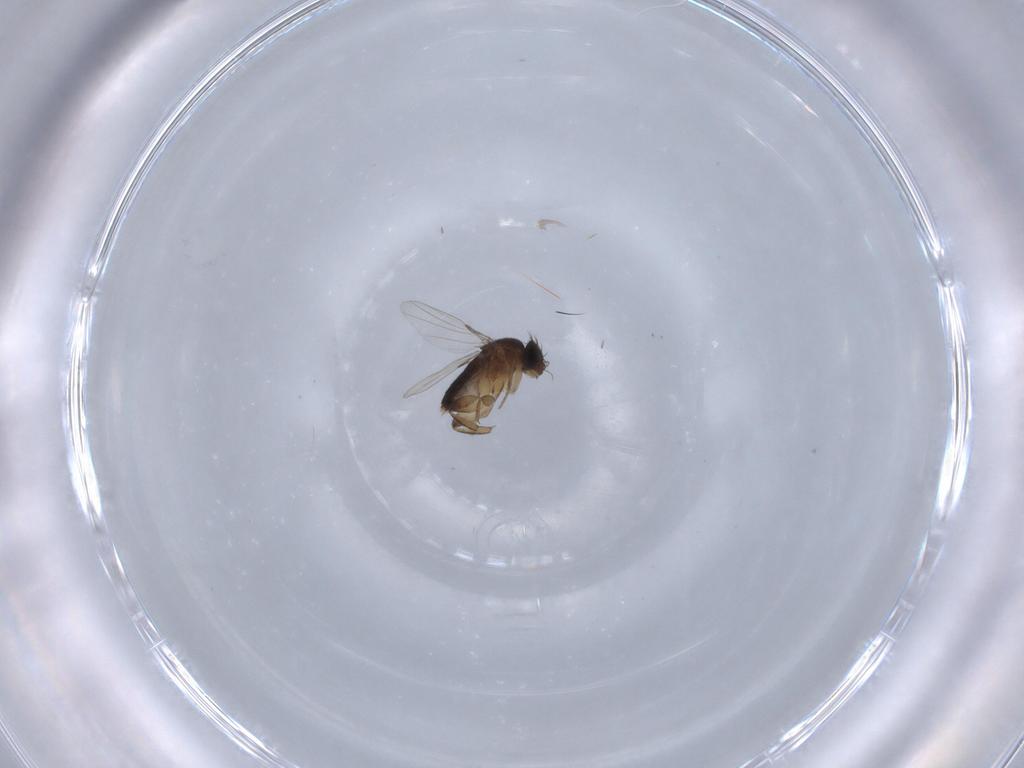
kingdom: Animalia
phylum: Arthropoda
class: Insecta
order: Diptera
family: Phoridae
